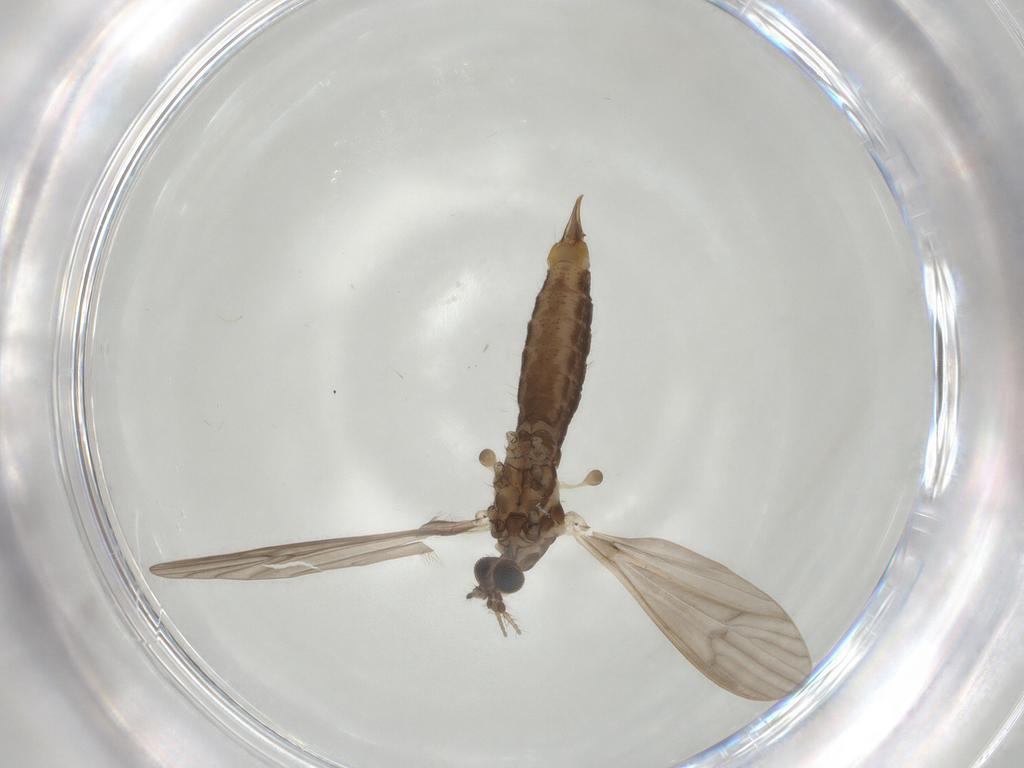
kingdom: Animalia
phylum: Arthropoda
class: Insecta
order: Diptera
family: Limoniidae
